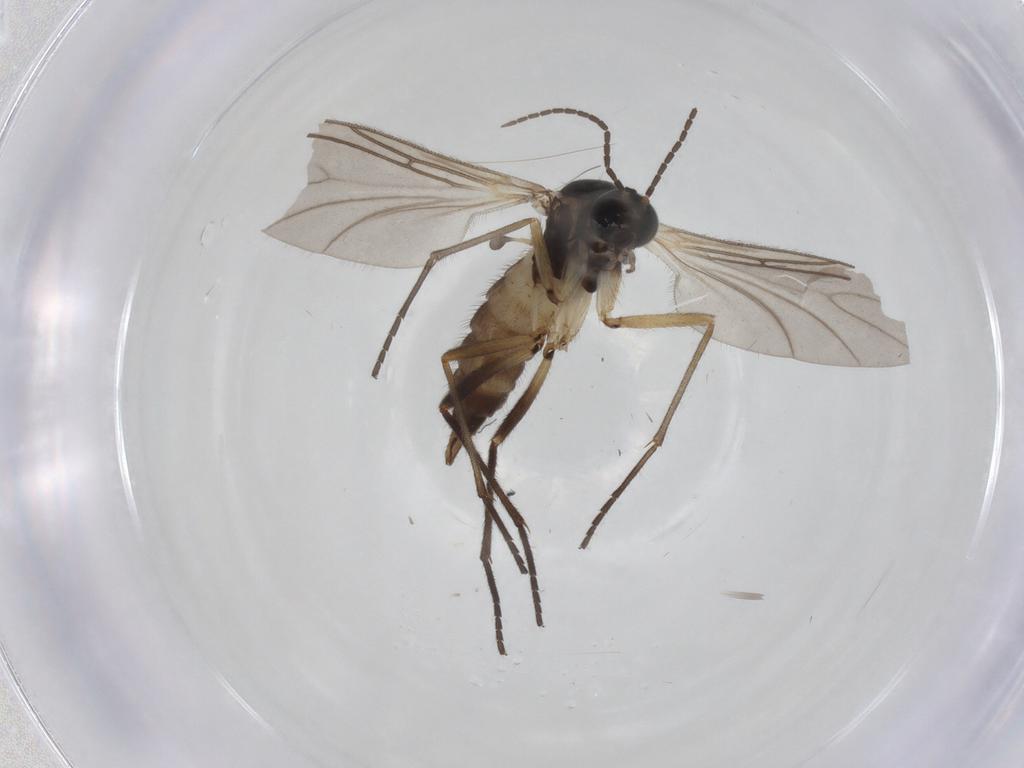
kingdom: Animalia
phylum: Arthropoda
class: Insecta
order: Diptera
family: Sciaridae
